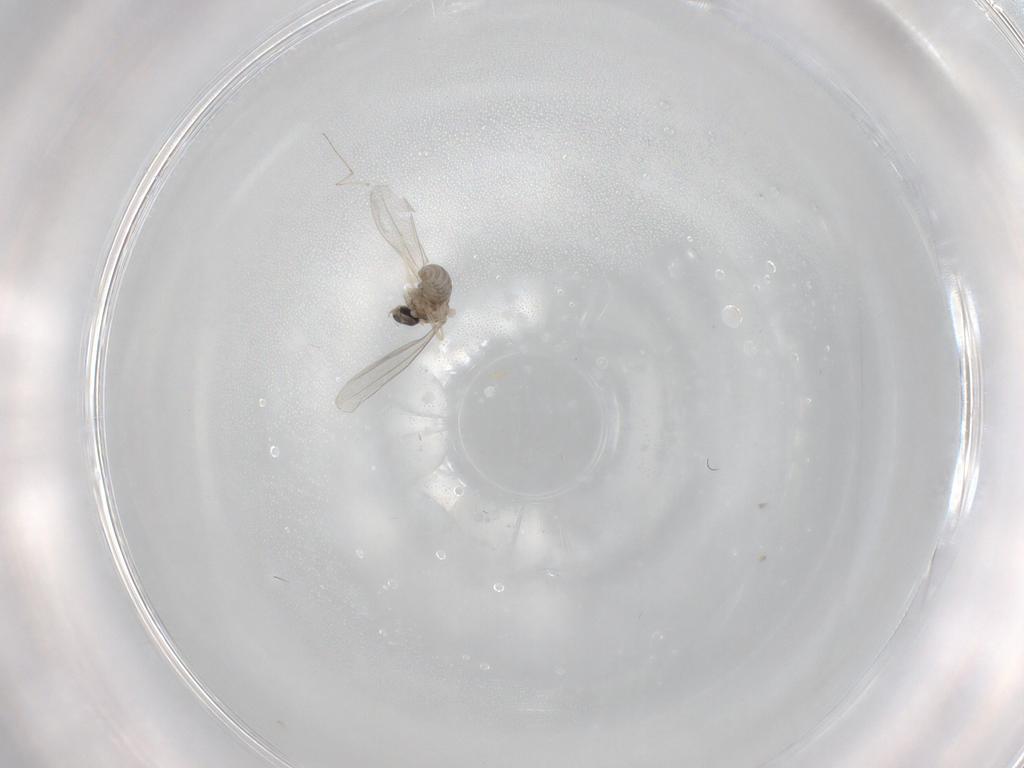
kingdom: Animalia
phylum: Arthropoda
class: Insecta
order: Diptera
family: Cecidomyiidae
